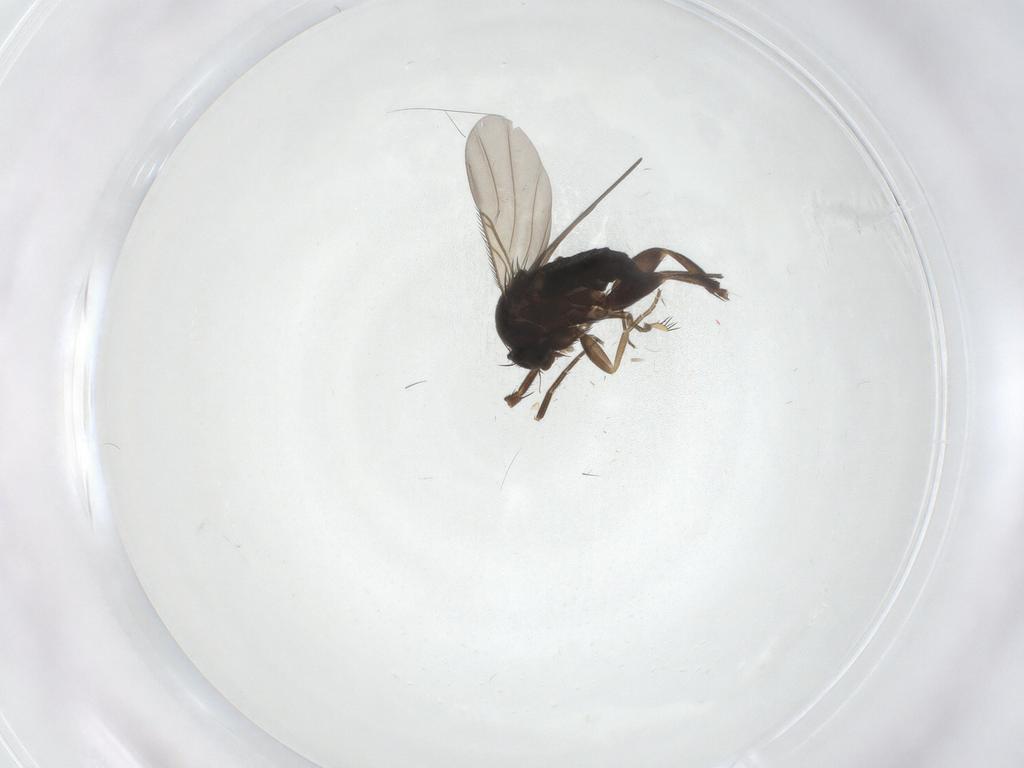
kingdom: Animalia
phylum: Arthropoda
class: Insecta
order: Diptera
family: Phoridae
